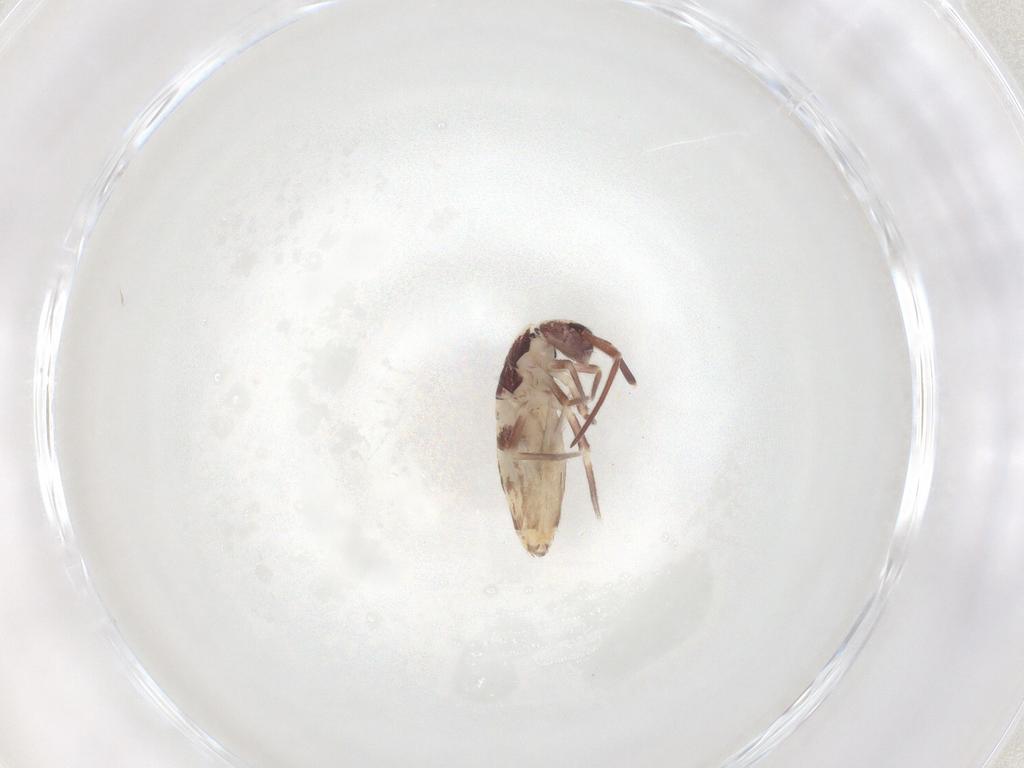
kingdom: Animalia
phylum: Arthropoda
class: Collembola
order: Entomobryomorpha
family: Entomobryidae
